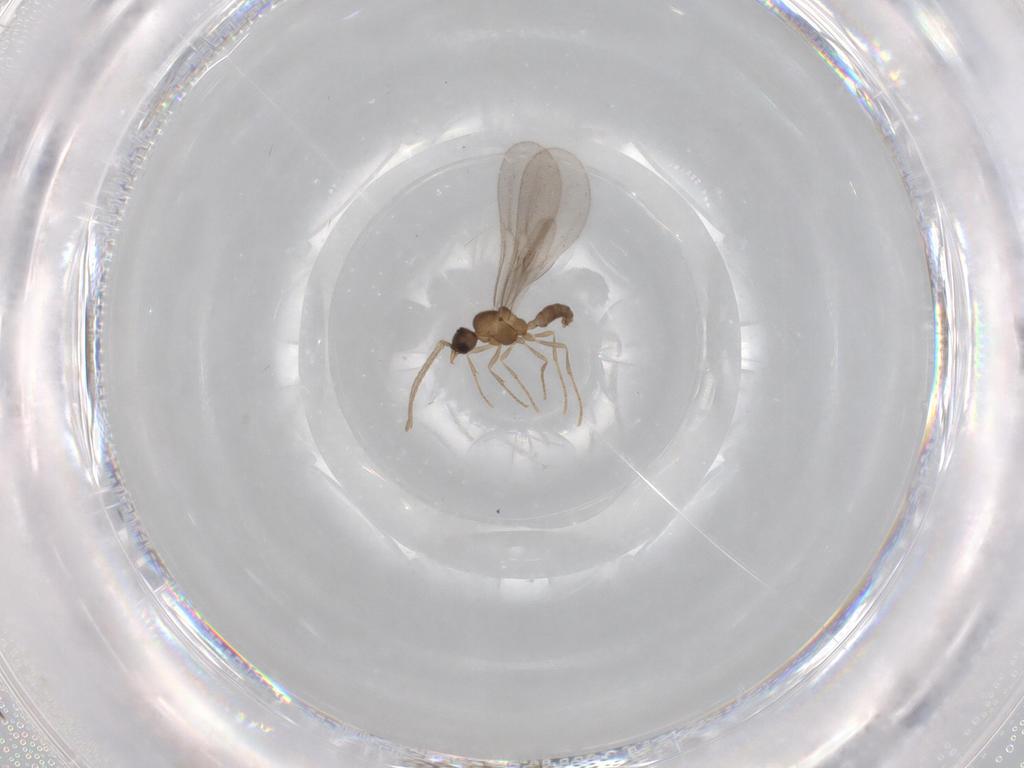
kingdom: Animalia
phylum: Arthropoda
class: Insecta
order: Hymenoptera
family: Formicidae
